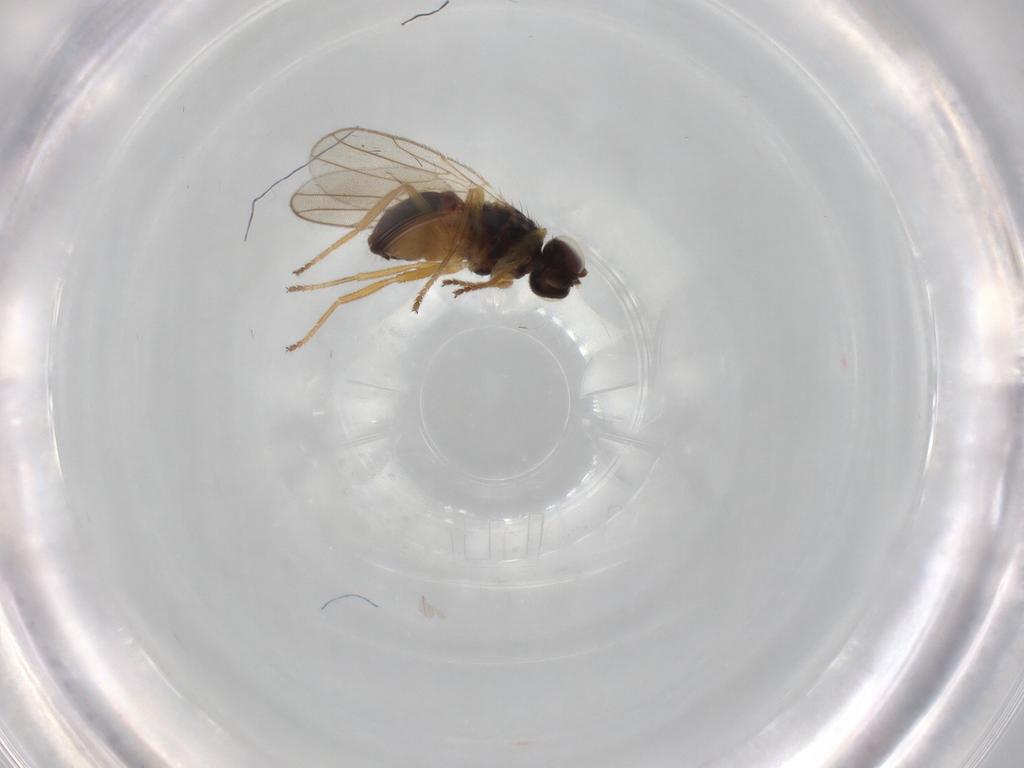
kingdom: Animalia
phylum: Arthropoda
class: Insecta
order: Diptera
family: Chloropidae
